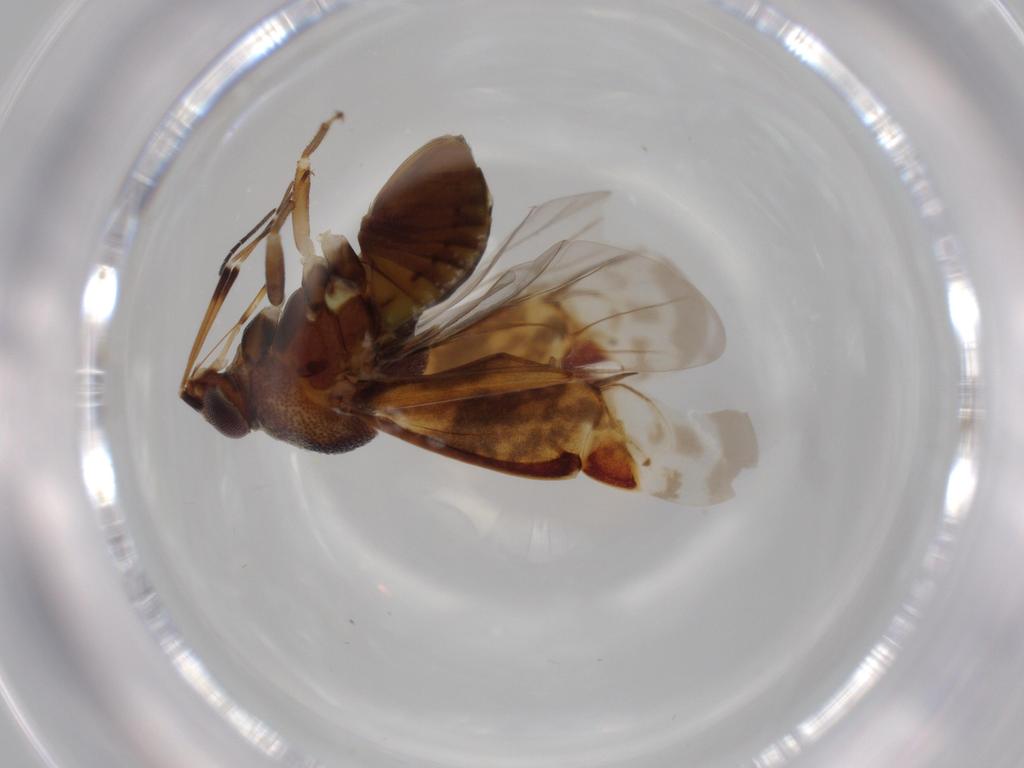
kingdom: Animalia
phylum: Arthropoda
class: Insecta
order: Hemiptera
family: Miridae
